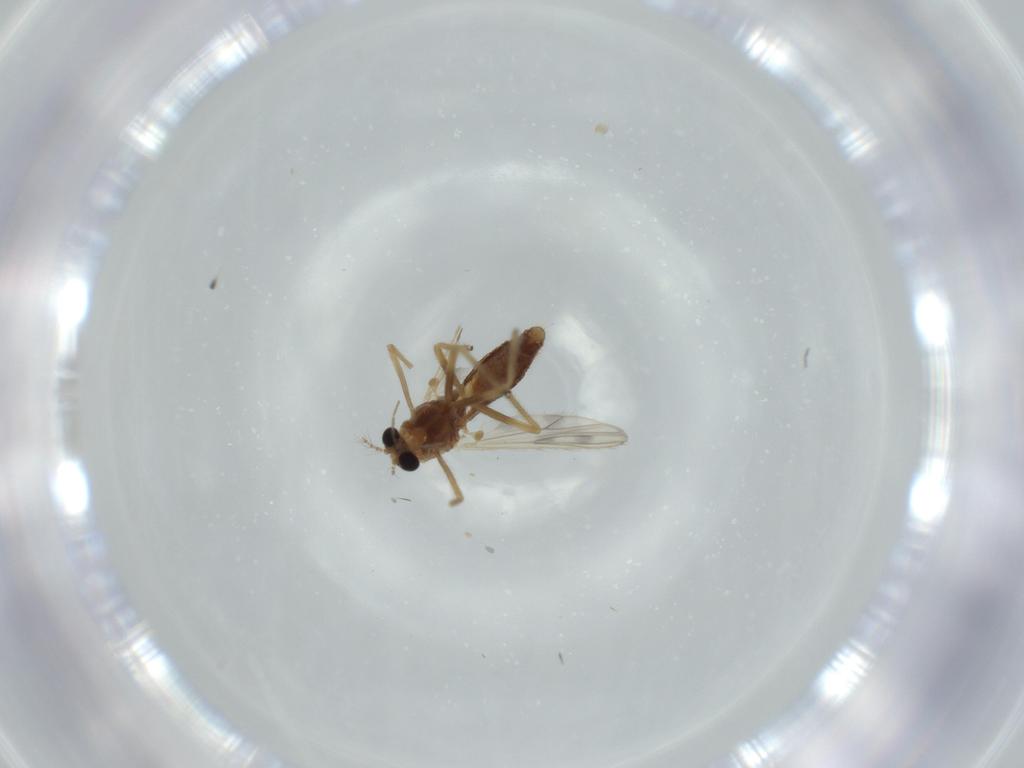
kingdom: Animalia
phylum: Arthropoda
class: Insecta
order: Diptera
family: Chironomidae
